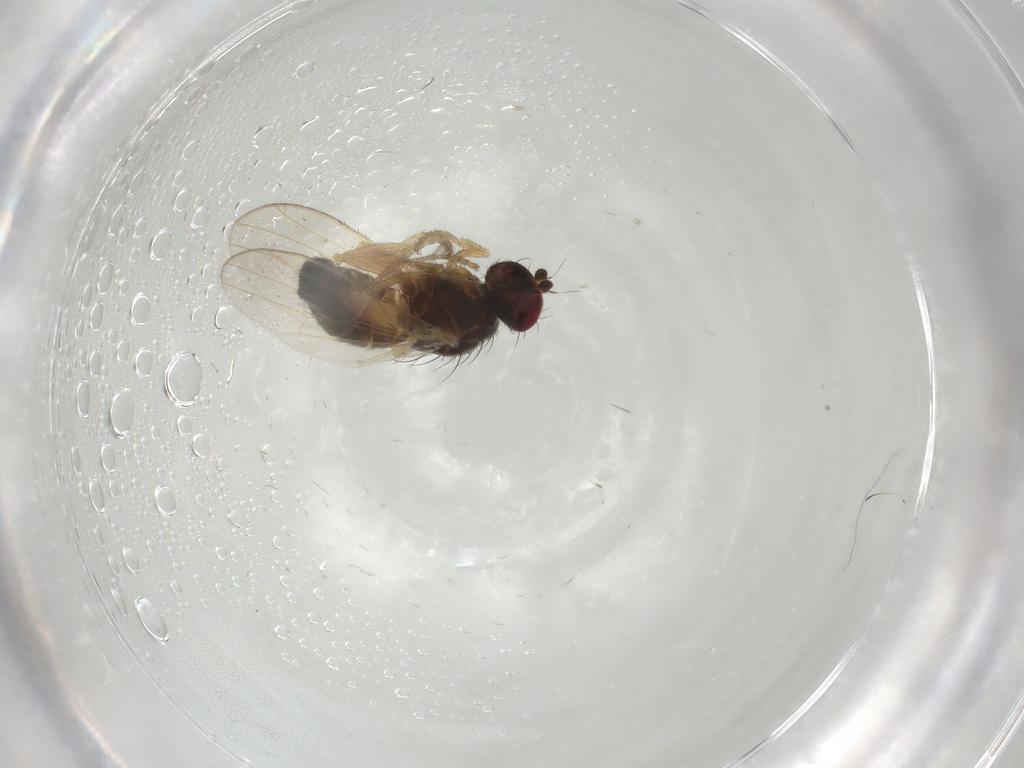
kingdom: Animalia
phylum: Arthropoda
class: Insecta
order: Diptera
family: Heleomyzidae
